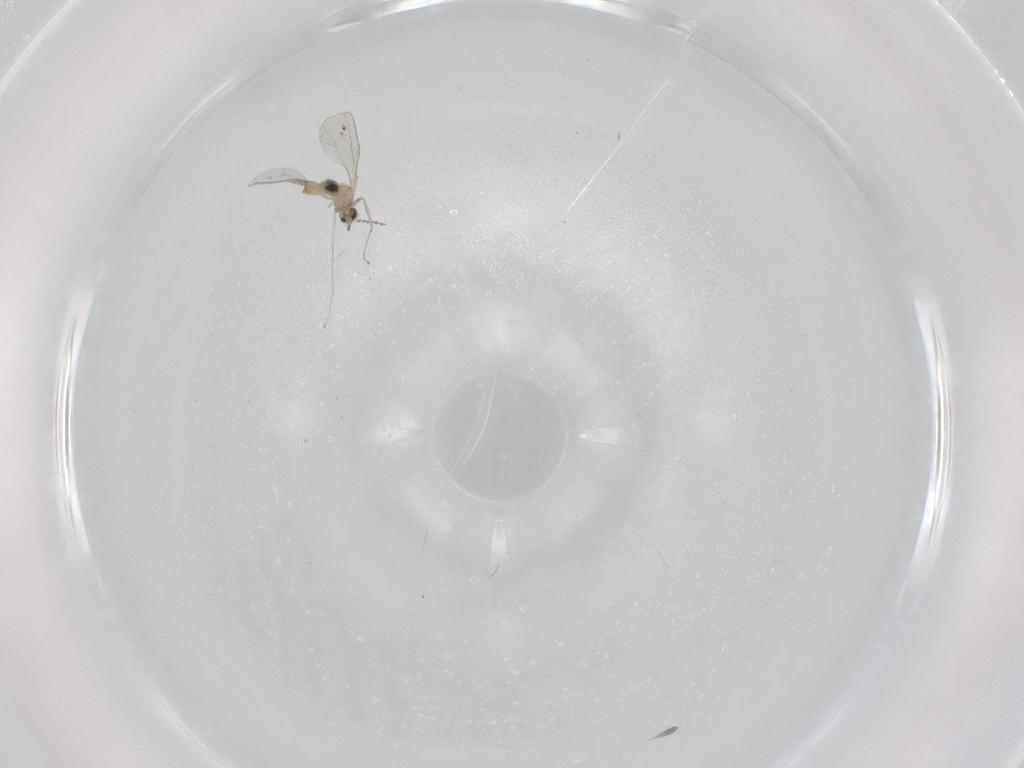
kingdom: Animalia
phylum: Arthropoda
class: Insecta
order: Diptera
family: Cecidomyiidae
